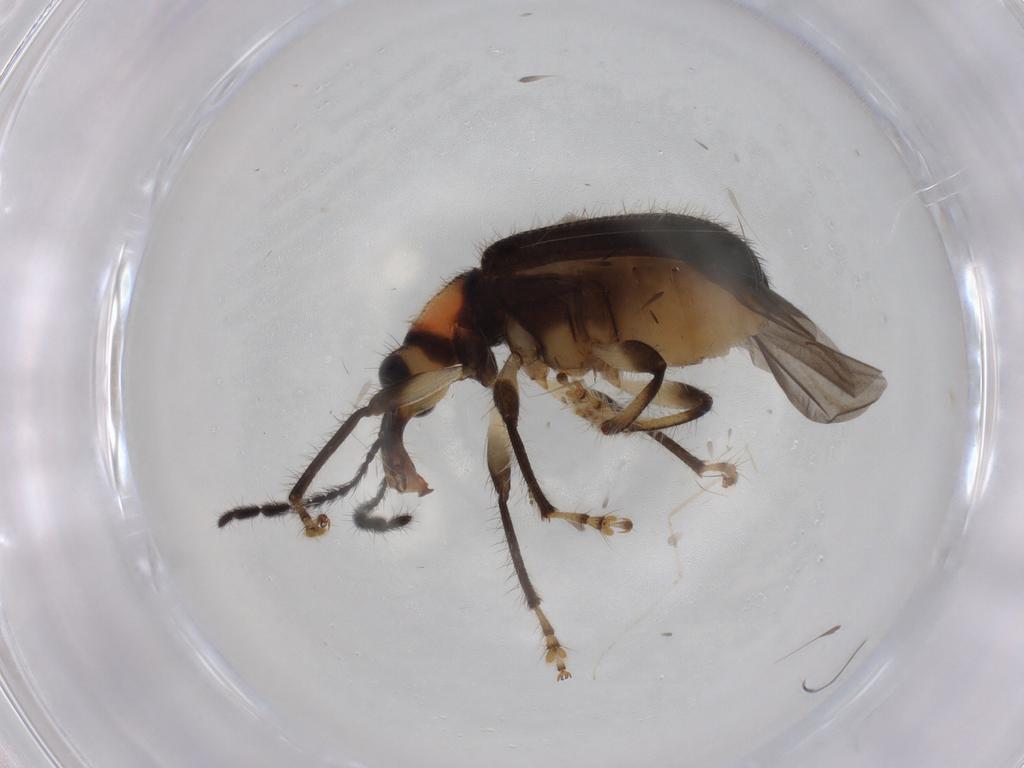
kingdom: Animalia
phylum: Arthropoda
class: Insecta
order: Coleoptera
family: Attelabidae
